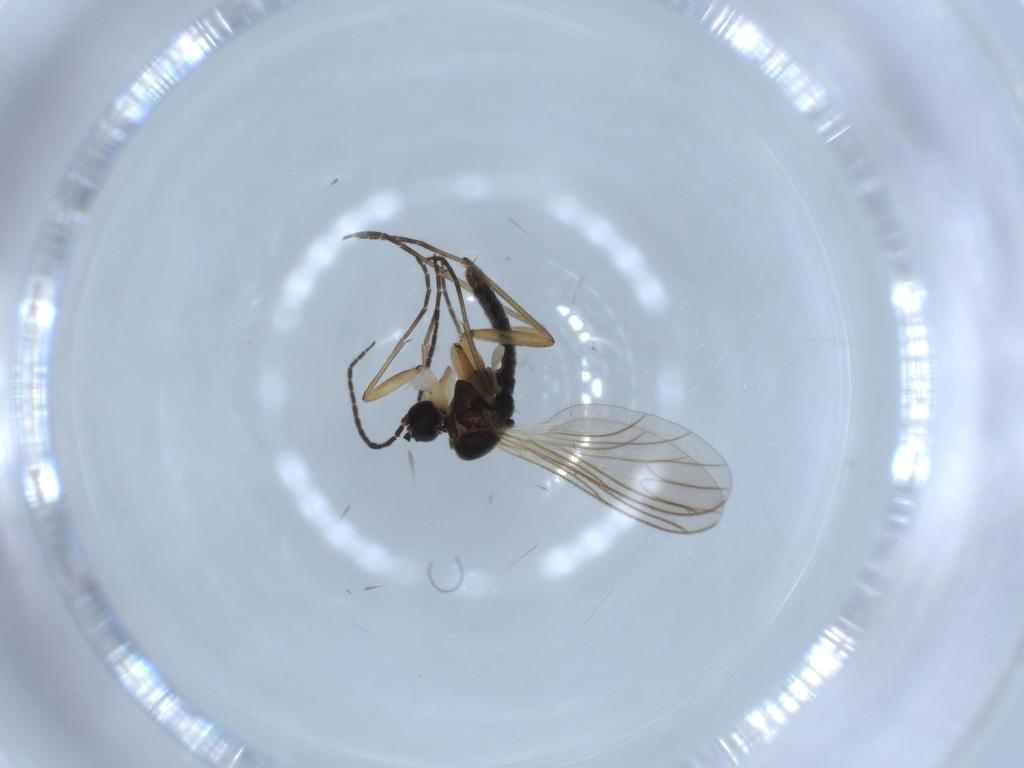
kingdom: Animalia
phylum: Arthropoda
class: Insecta
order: Diptera
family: Sciaridae
